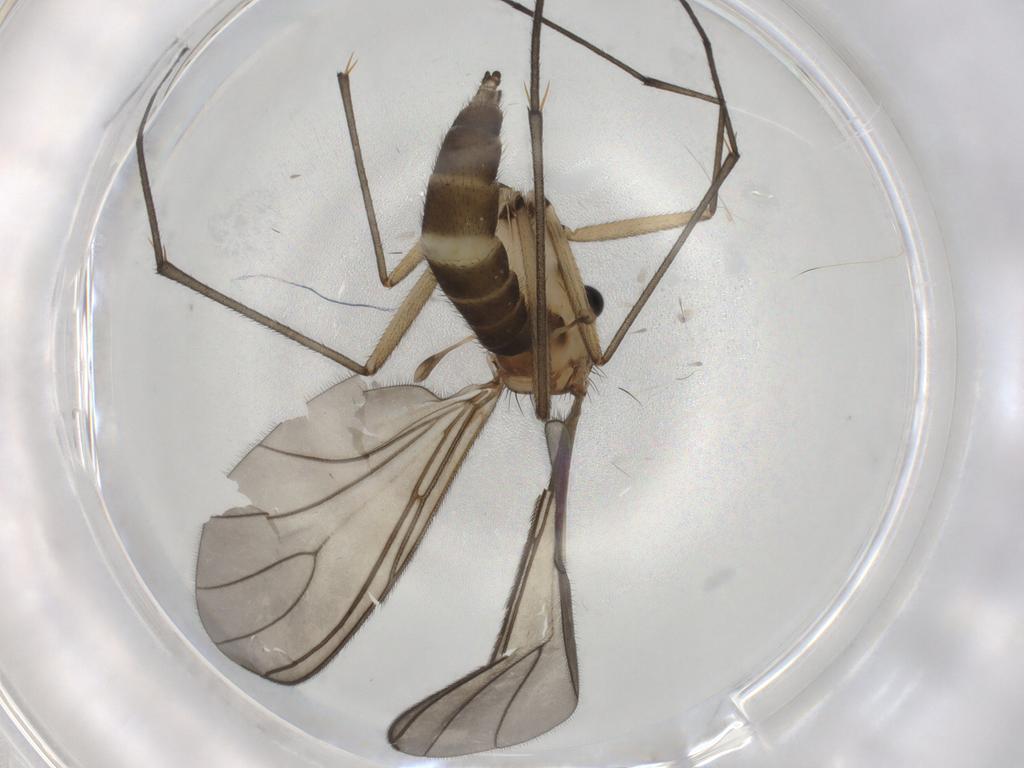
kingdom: Animalia
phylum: Arthropoda
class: Insecta
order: Diptera
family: Sciaridae
